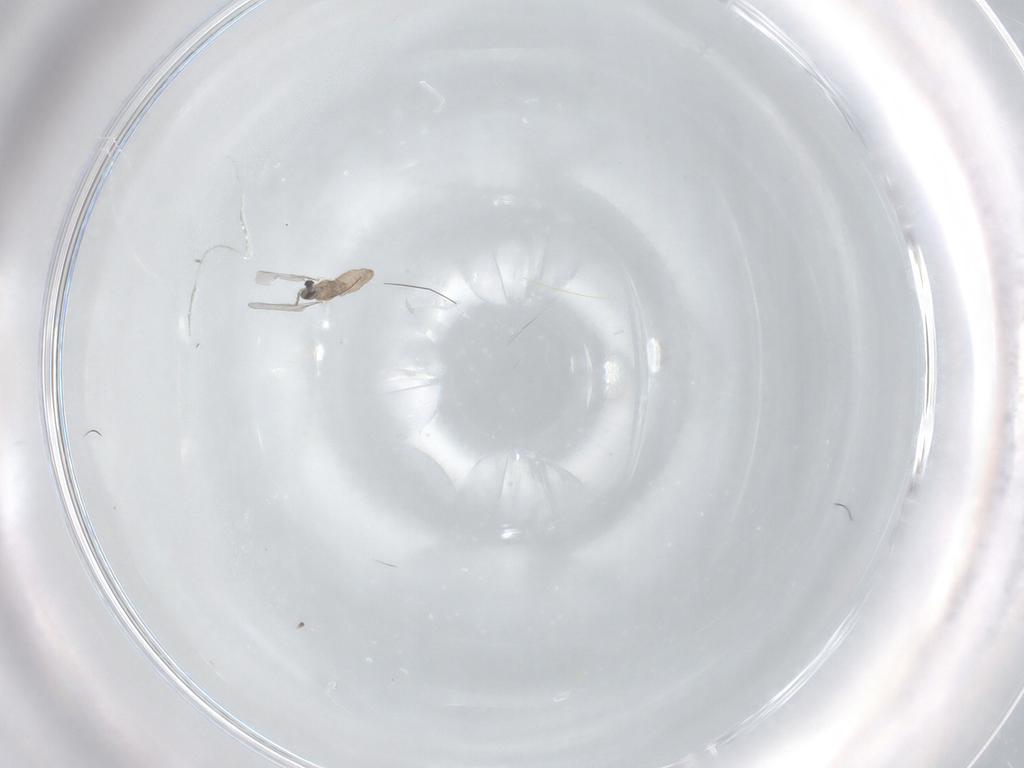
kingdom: Animalia
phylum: Arthropoda
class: Insecta
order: Diptera
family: Cecidomyiidae
